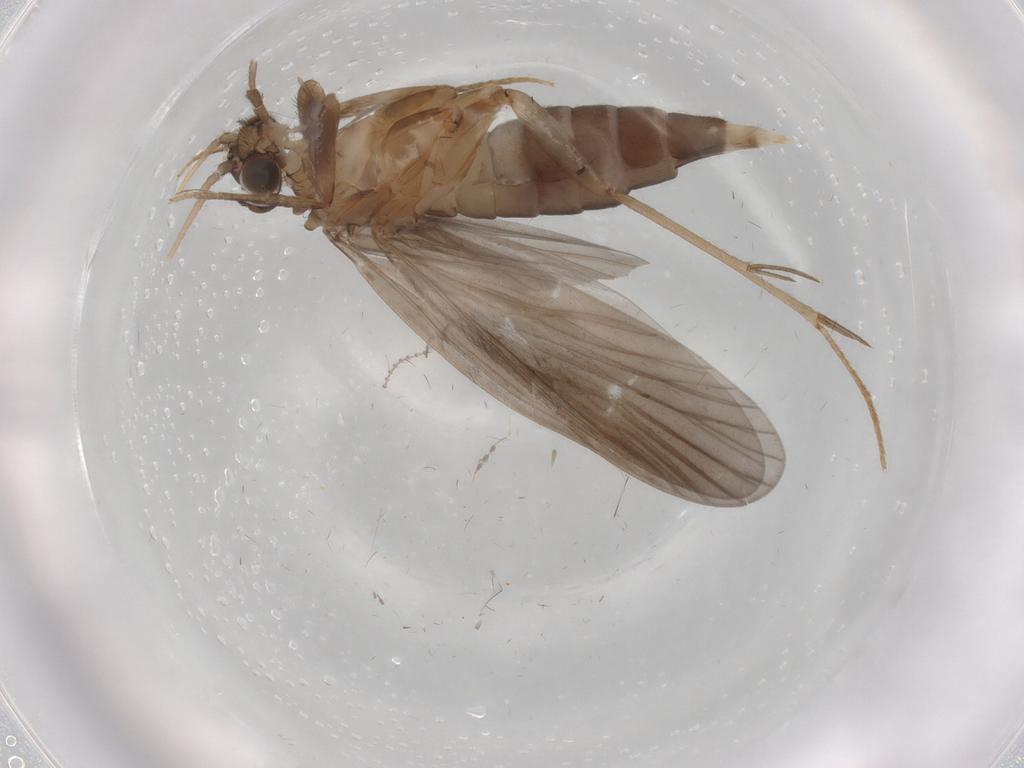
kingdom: Animalia
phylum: Arthropoda
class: Insecta
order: Trichoptera
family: Philopotamidae
